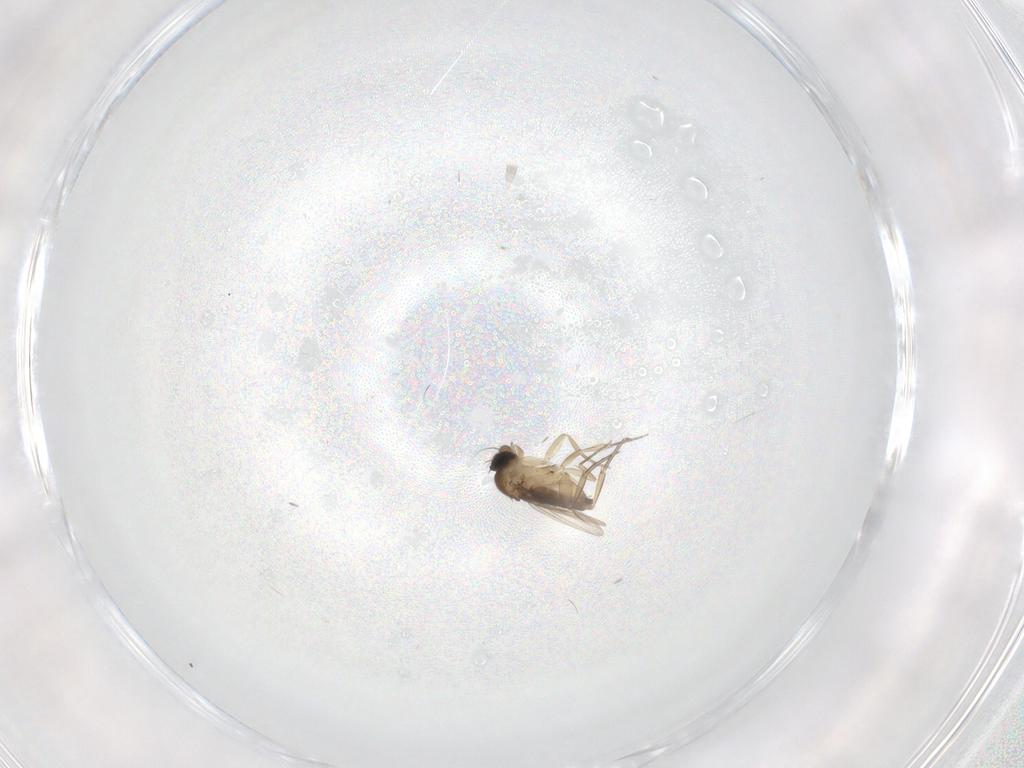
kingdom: Animalia
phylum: Arthropoda
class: Insecta
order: Diptera
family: Phoridae
